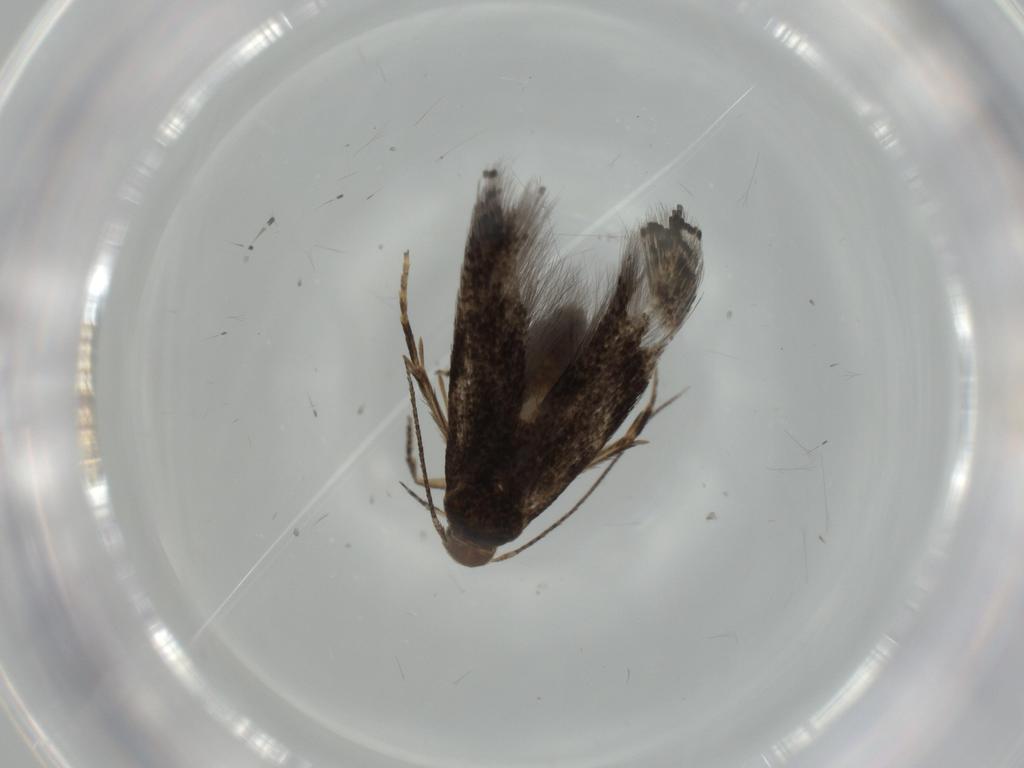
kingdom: Animalia
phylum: Arthropoda
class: Insecta
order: Lepidoptera
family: Gelechiidae
